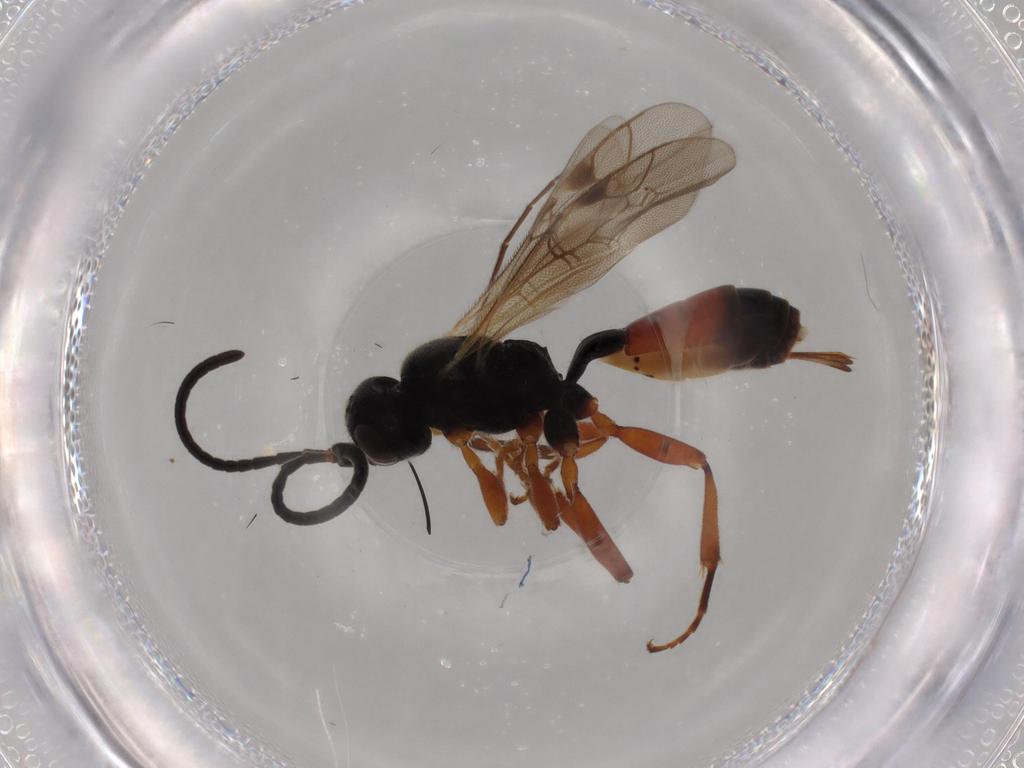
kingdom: Animalia
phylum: Arthropoda
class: Insecta
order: Hymenoptera
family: Ichneumonidae
